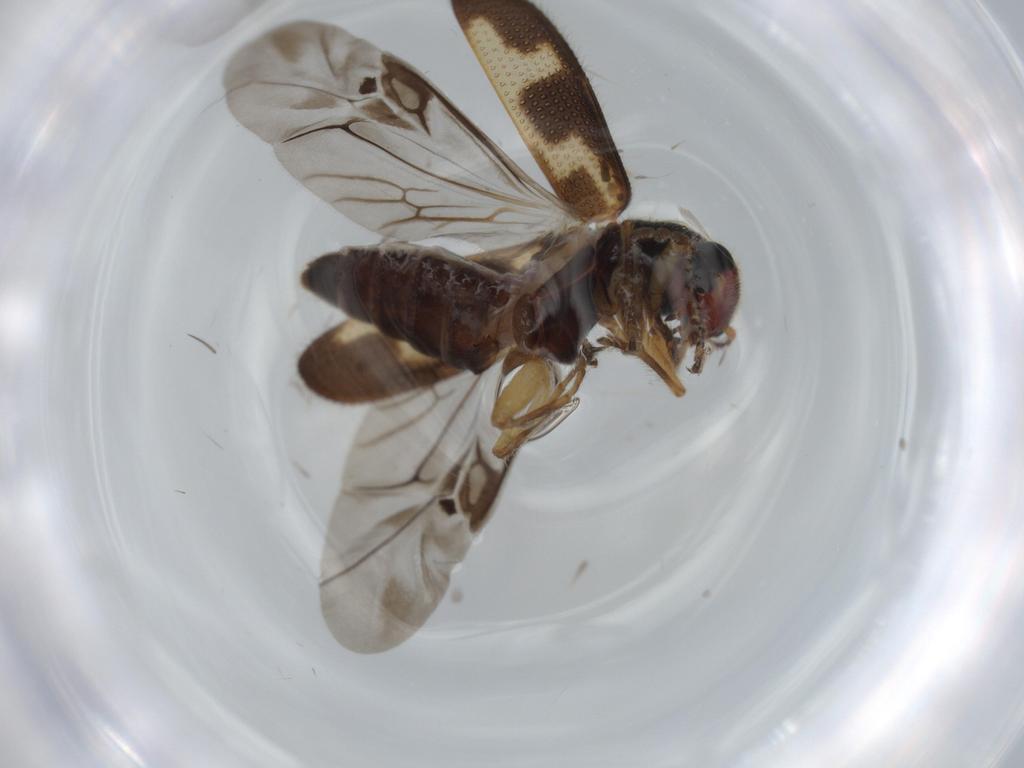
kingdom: Animalia
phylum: Arthropoda
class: Insecta
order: Coleoptera
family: Cleridae
